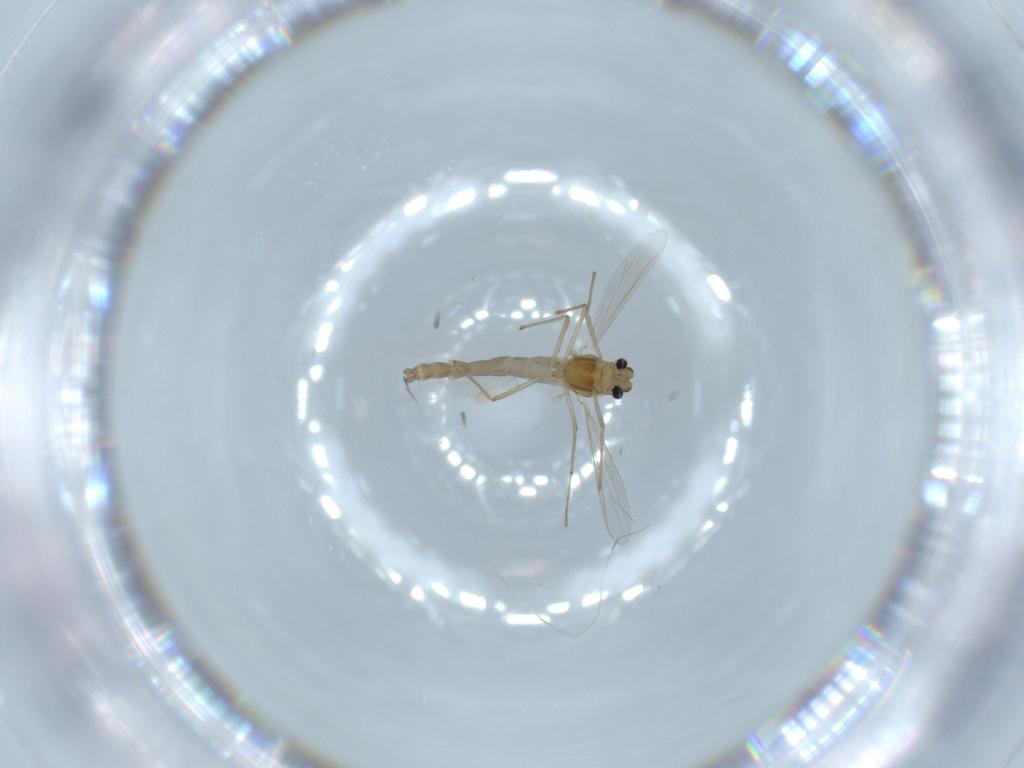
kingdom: Animalia
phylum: Arthropoda
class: Insecta
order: Diptera
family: Chironomidae
